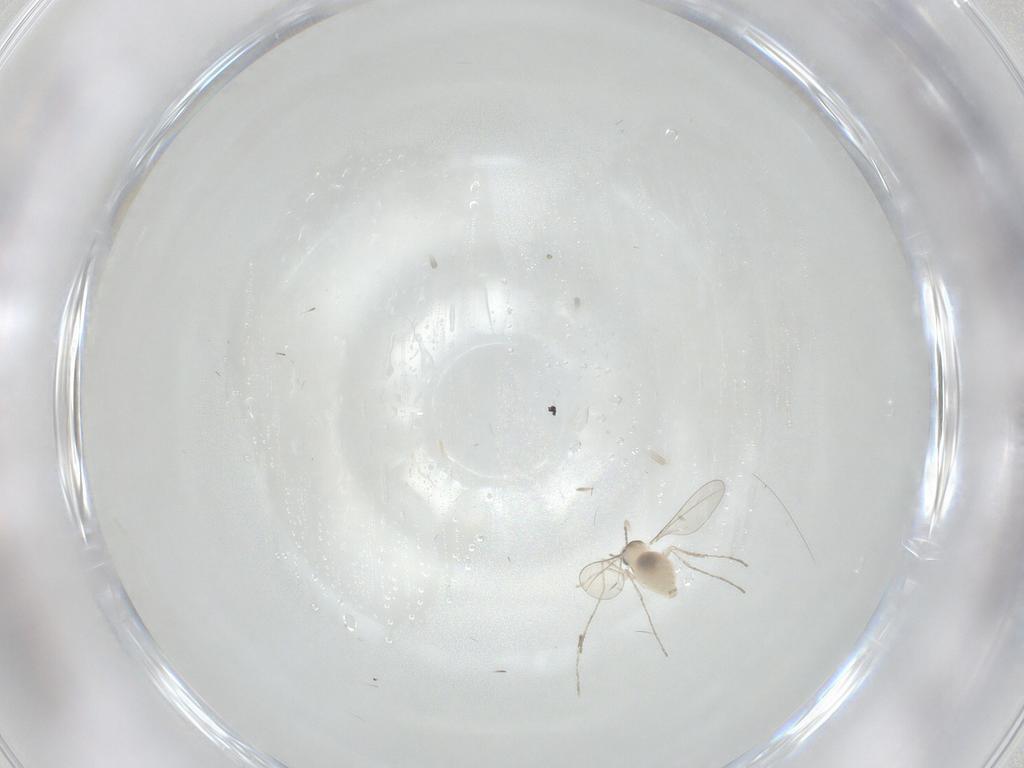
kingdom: Animalia
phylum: Arthropoda
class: Insecta
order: Diptera
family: Cecidomyiidae
